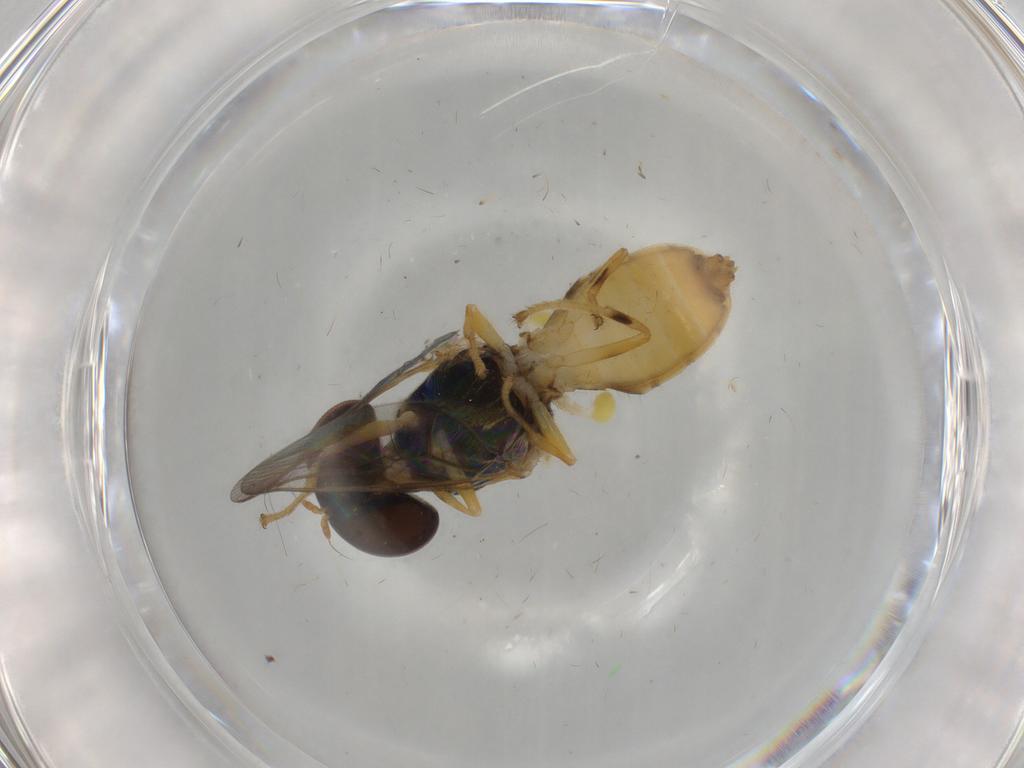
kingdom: Animalia
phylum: Arthropoda
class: Insecta
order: Diptera
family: Stratiomyidae
